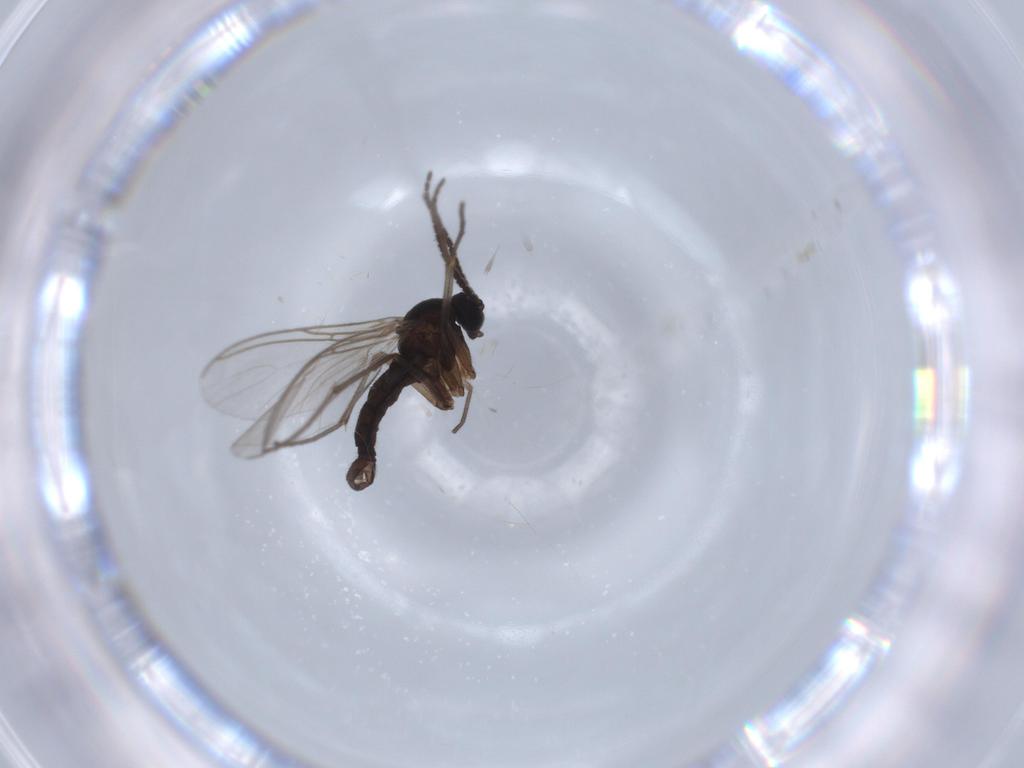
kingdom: Animalia
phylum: Arthropoda
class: Insecta
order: Diptera
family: Sciaridae
